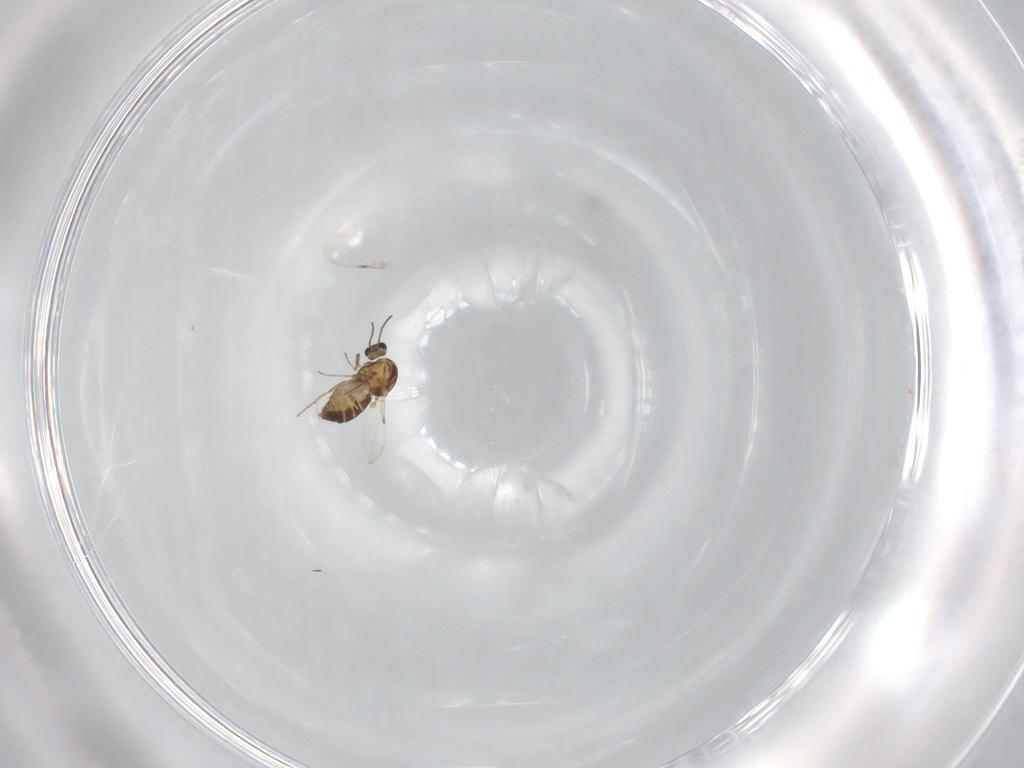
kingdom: Animalia
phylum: Arthropoda
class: Insecta
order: Diptera
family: Ceratopogonidae
